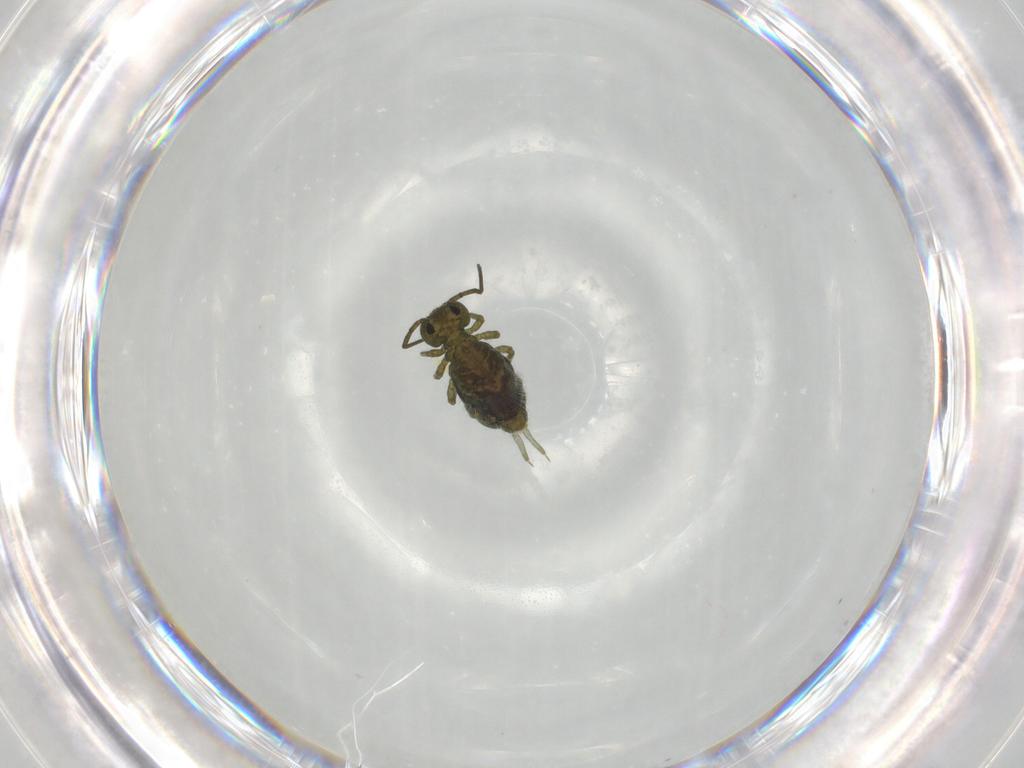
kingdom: Animalia
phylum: Arthropoda
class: Collembola
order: Symphypleona
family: Sminthuridae
